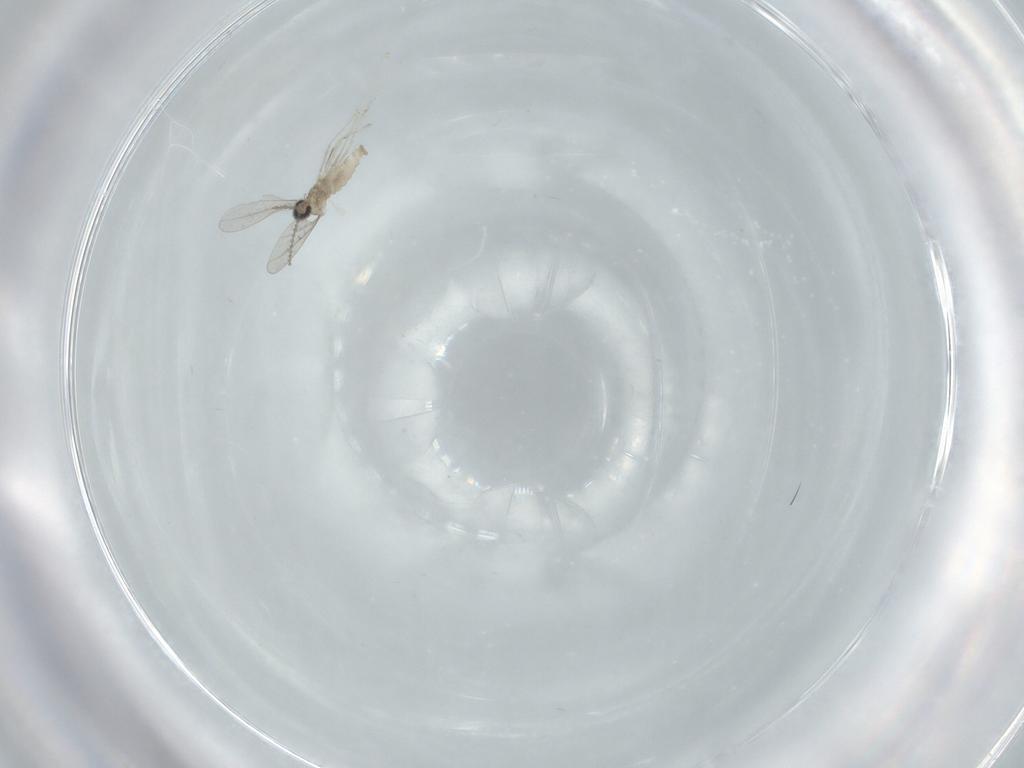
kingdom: Animalia
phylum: Arthropoda
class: Insecta
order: Diptera
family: Cecidomyiidae
